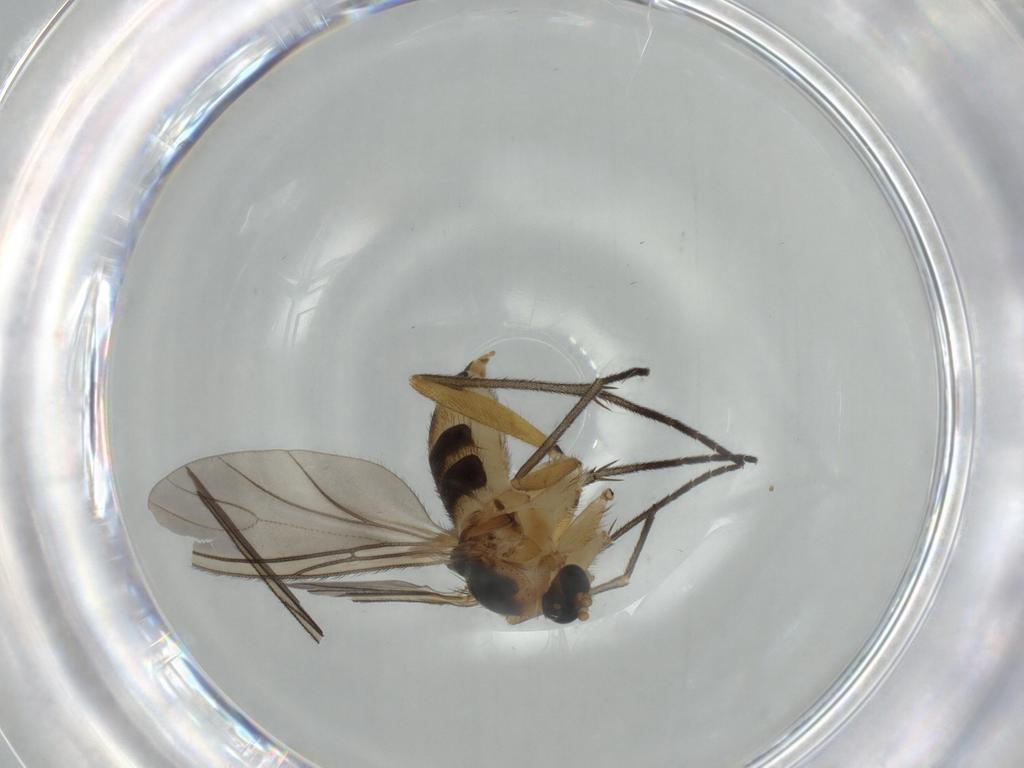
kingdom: Animalia
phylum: Arthropoda
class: Insecta
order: Diptera
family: Sciaridae
